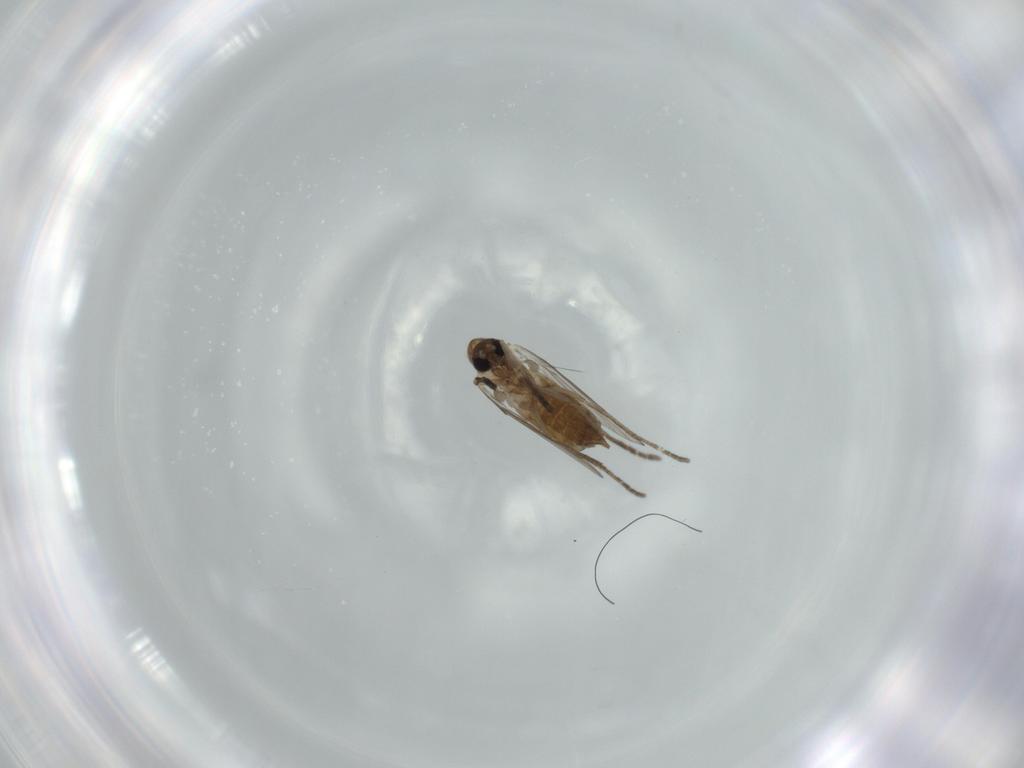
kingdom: Animalia
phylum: Arthropoda
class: Insecta
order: Diptera
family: Psychodidae
